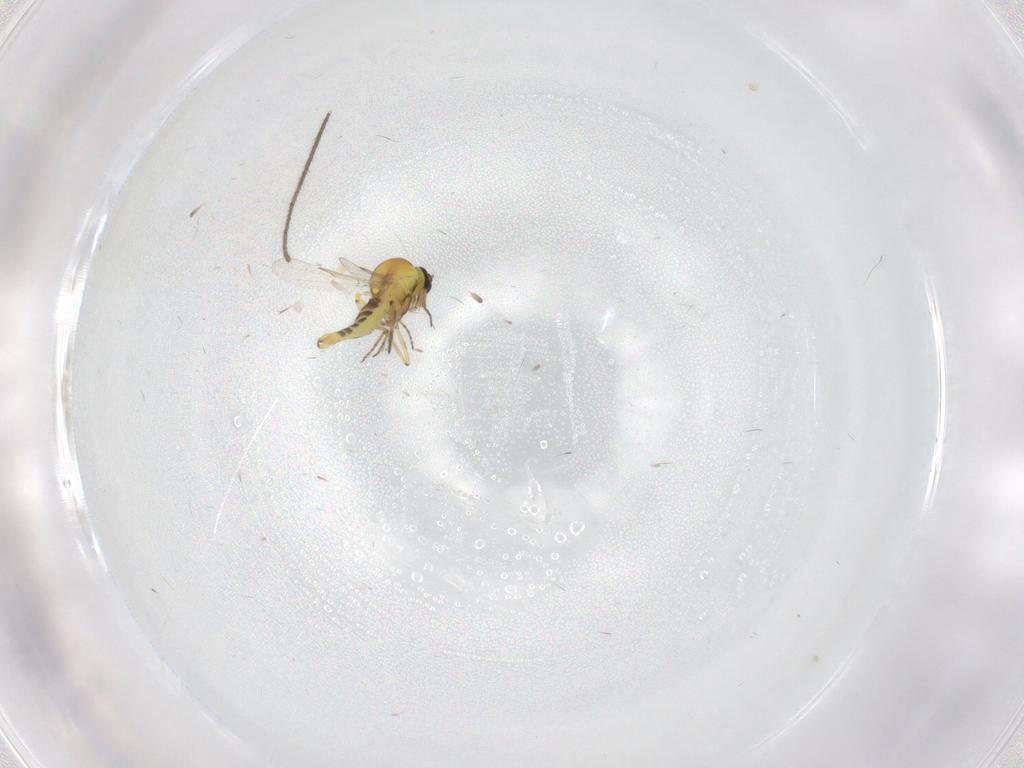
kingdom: Animalia
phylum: Arthropoda
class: Insecta
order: Diptera
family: Limoniidae
